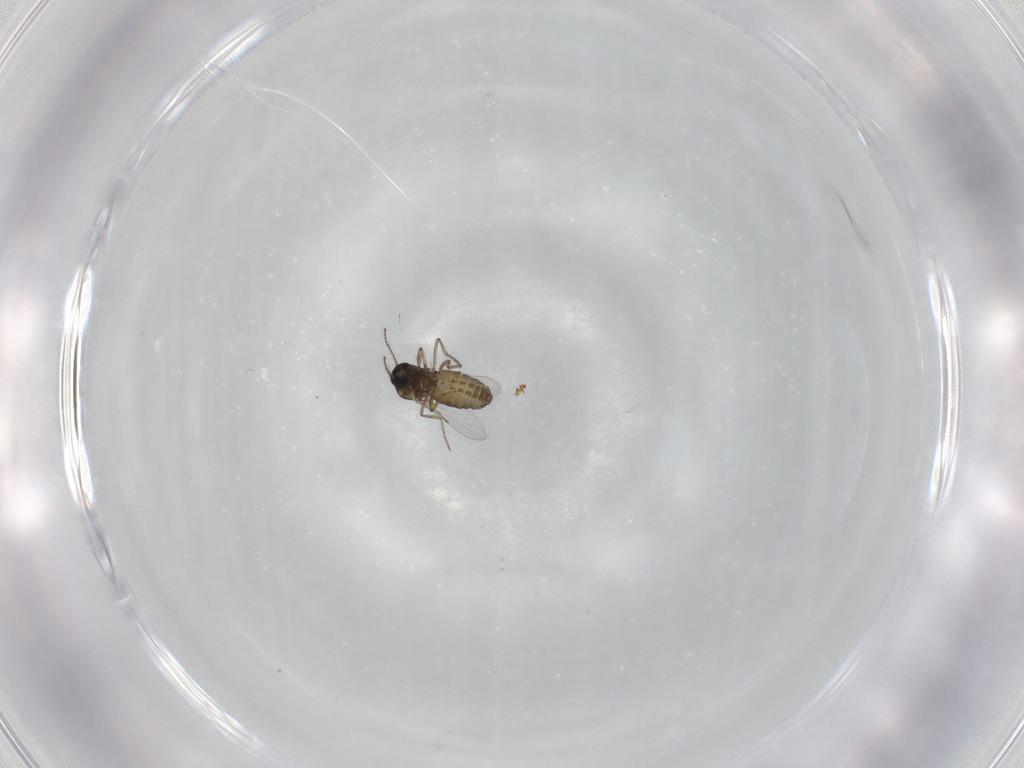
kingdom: Animalia
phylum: Arthropoda
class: Insecta
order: Diptera
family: Ceratopogonidae
